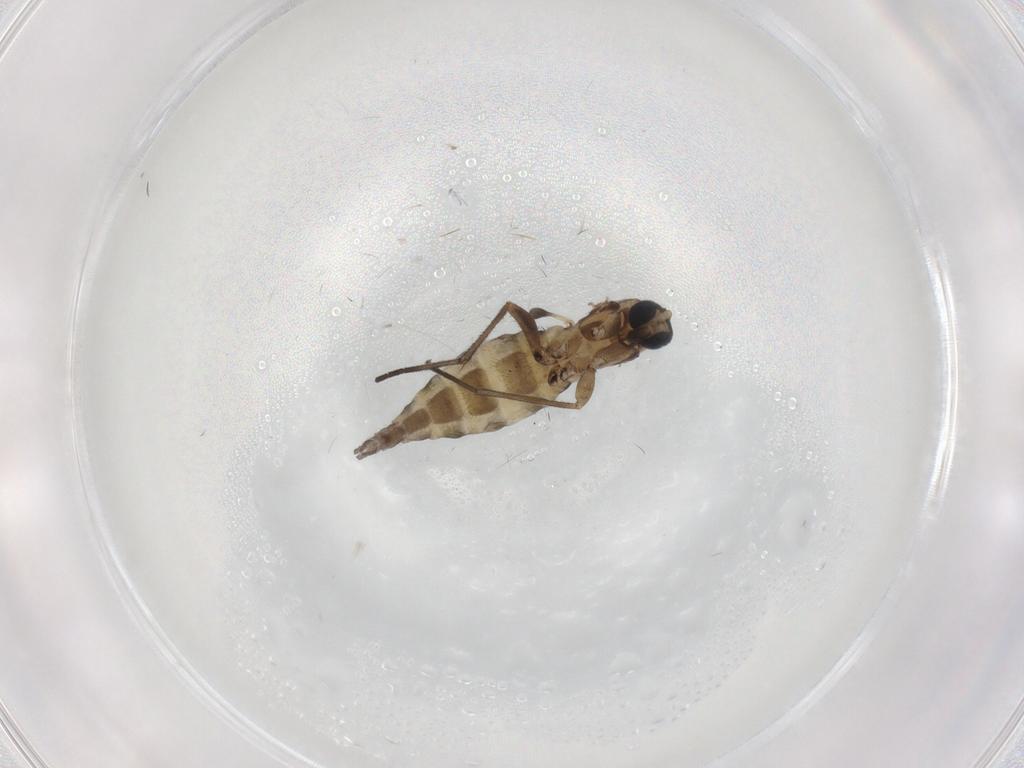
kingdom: Animalia
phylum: Arthropoda
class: Insecta
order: Diptera
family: Sciaridae
